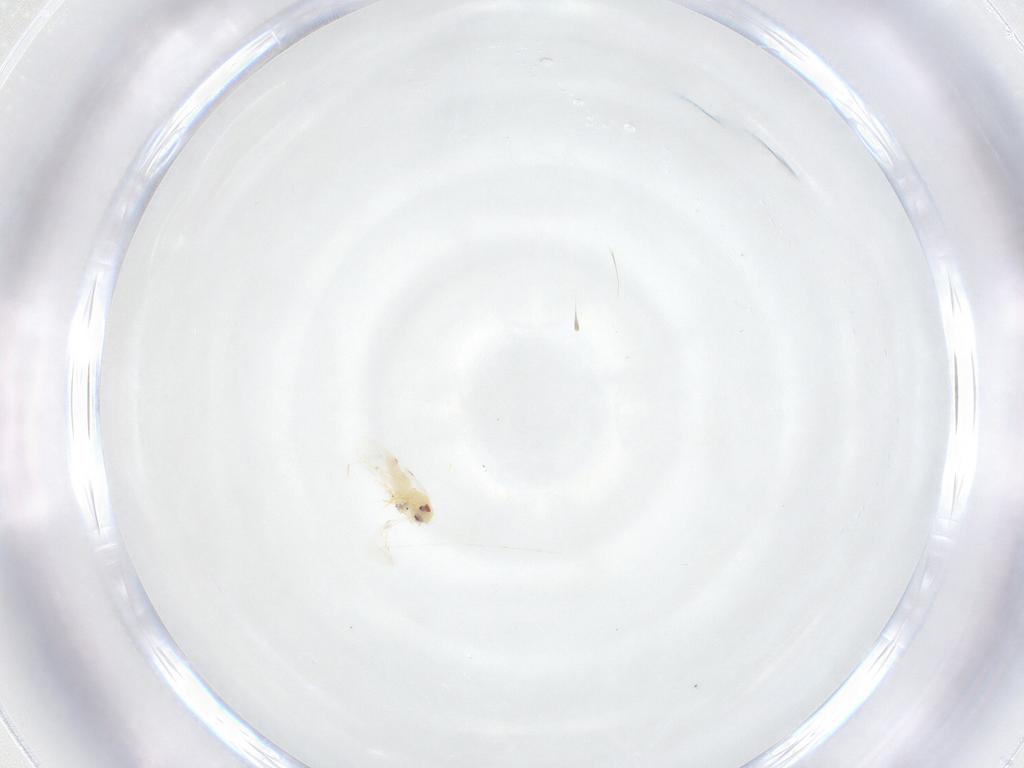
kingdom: Animalia
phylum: Arthropoda
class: Insecta
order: Hemiptera
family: Aleyrodidae
